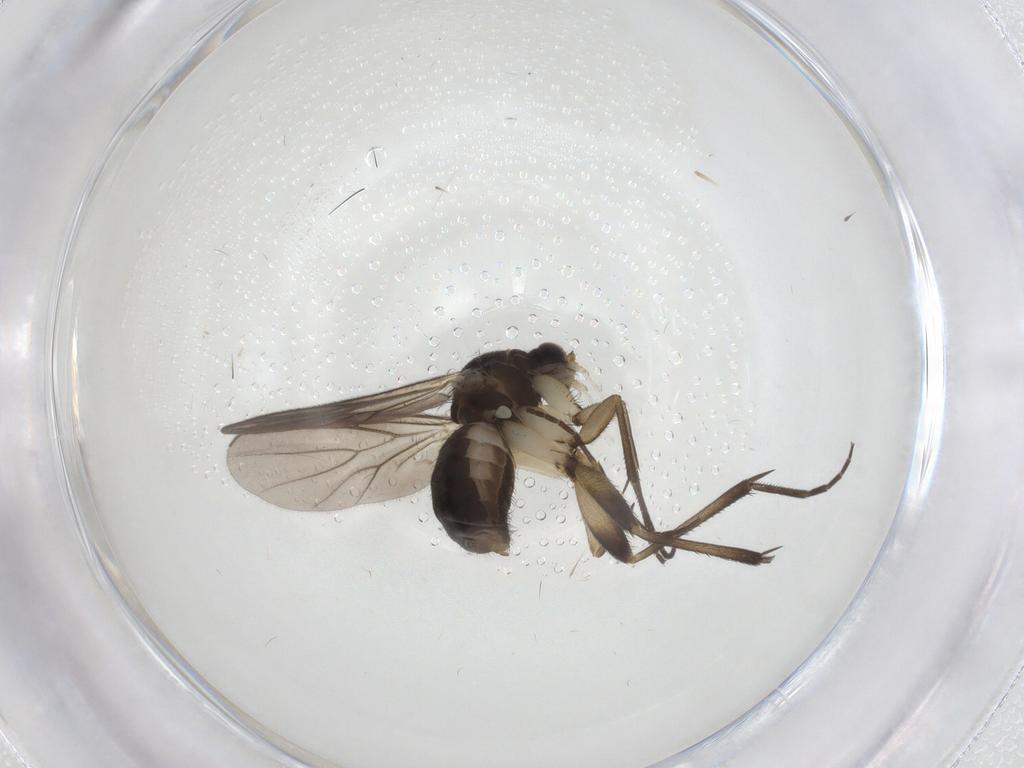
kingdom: Animalia
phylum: Arthropoda
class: Insecta
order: Diptera
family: Mycetophilidae
